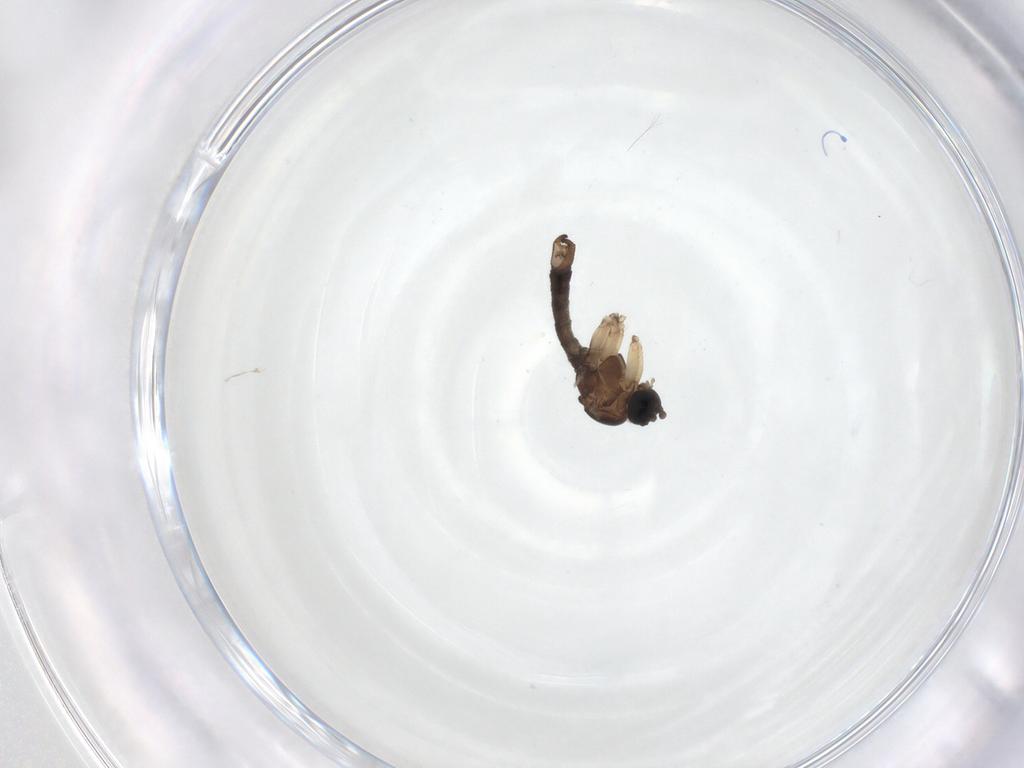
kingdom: Animalia
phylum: Arthropoda
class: Insecta
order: Diptera
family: Sciaridae
